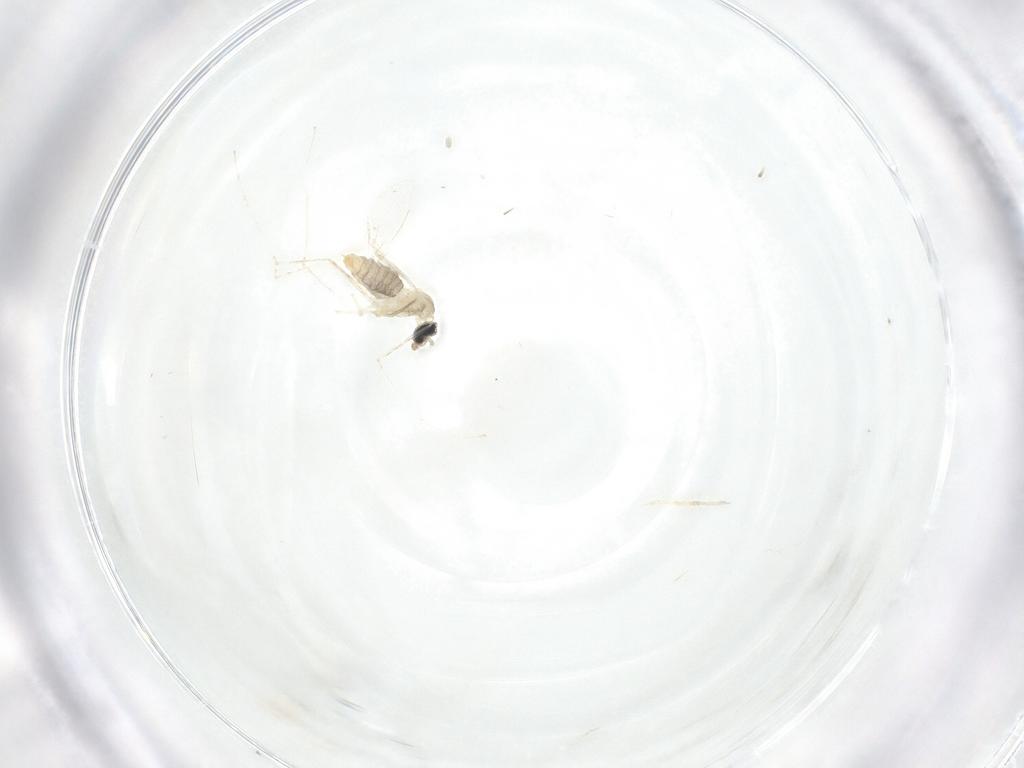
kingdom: Animalia
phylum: Arthropoda
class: Insecta
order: Diptera
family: Cecidomyiidae
